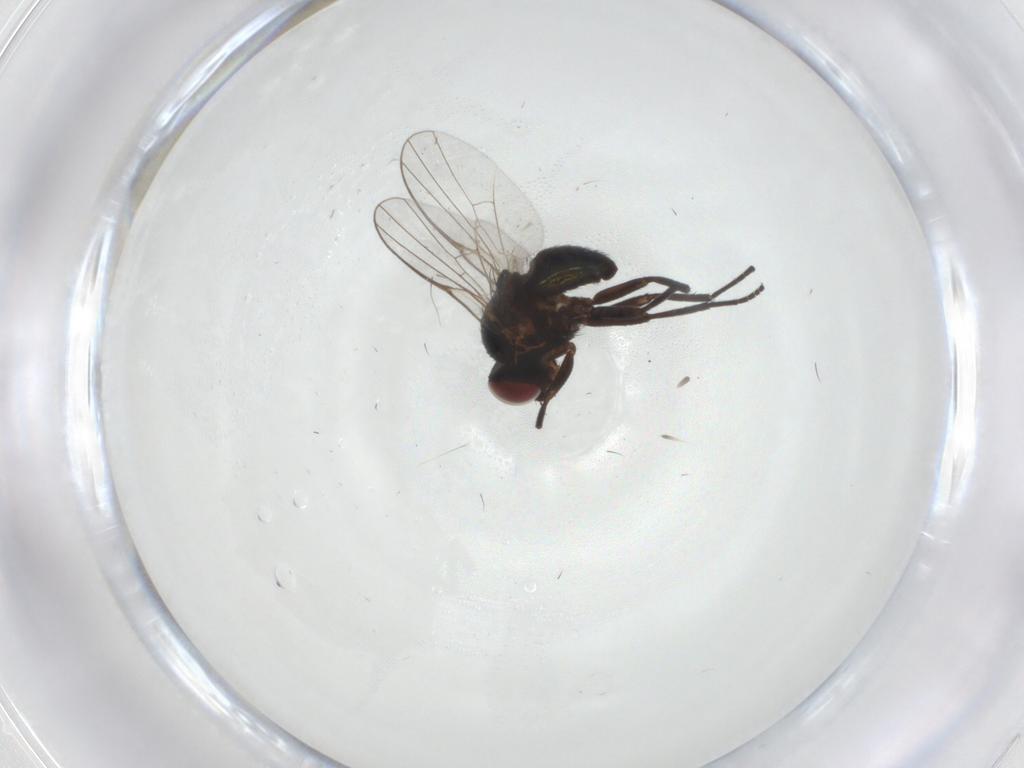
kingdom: Animalia
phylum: Arthropoda
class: Insecta
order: Diptera
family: Agromyzidae
